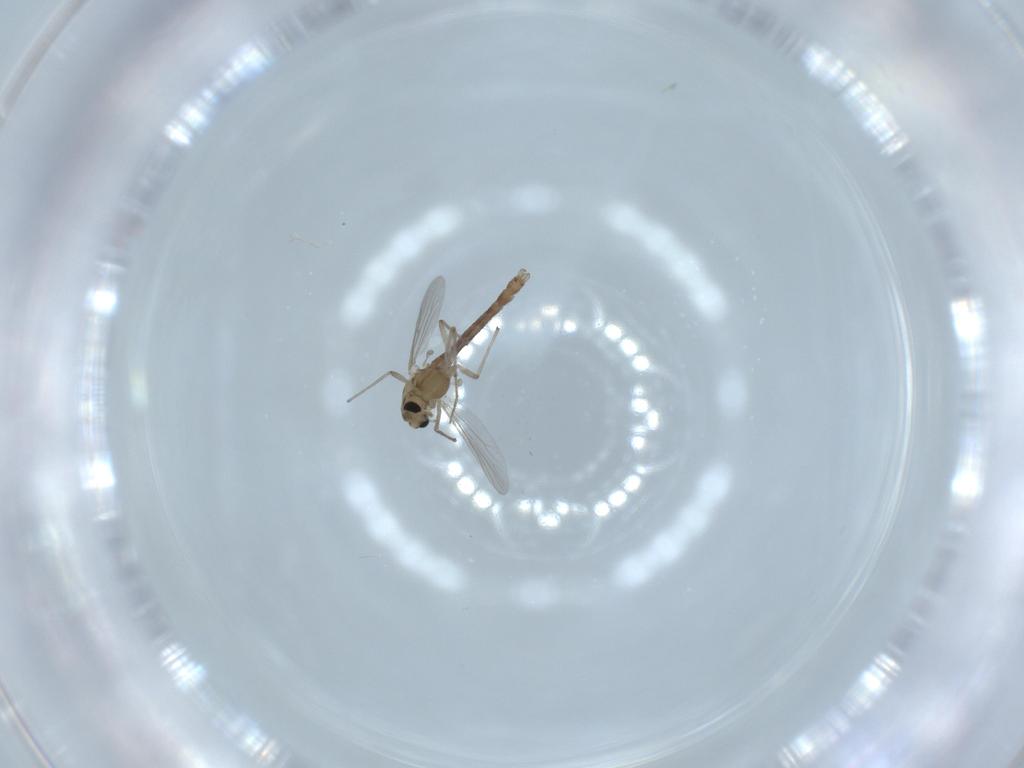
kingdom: Animalia
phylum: Arthropoda
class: Insecta
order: Diptera
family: Chironomidae
